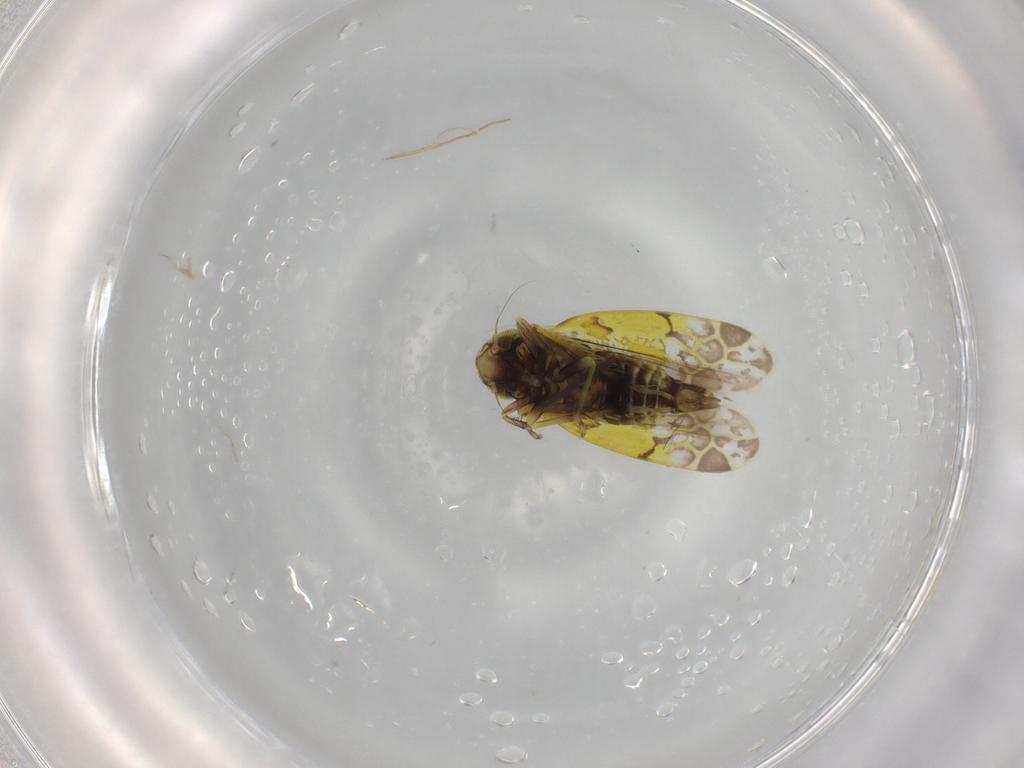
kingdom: Animalia
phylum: Arthropoda
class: Insecta
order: Hemiptera
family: Cicadellidae
